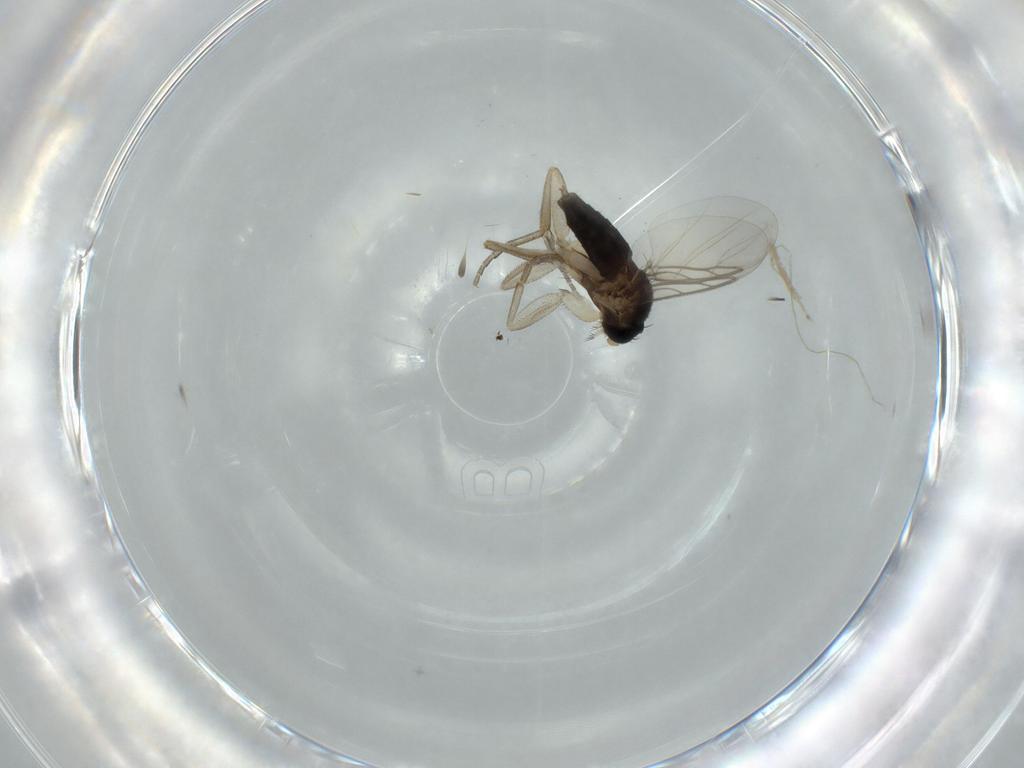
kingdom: Animalia
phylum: Arthropoda
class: Insecta
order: Diptera
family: Phoridae
